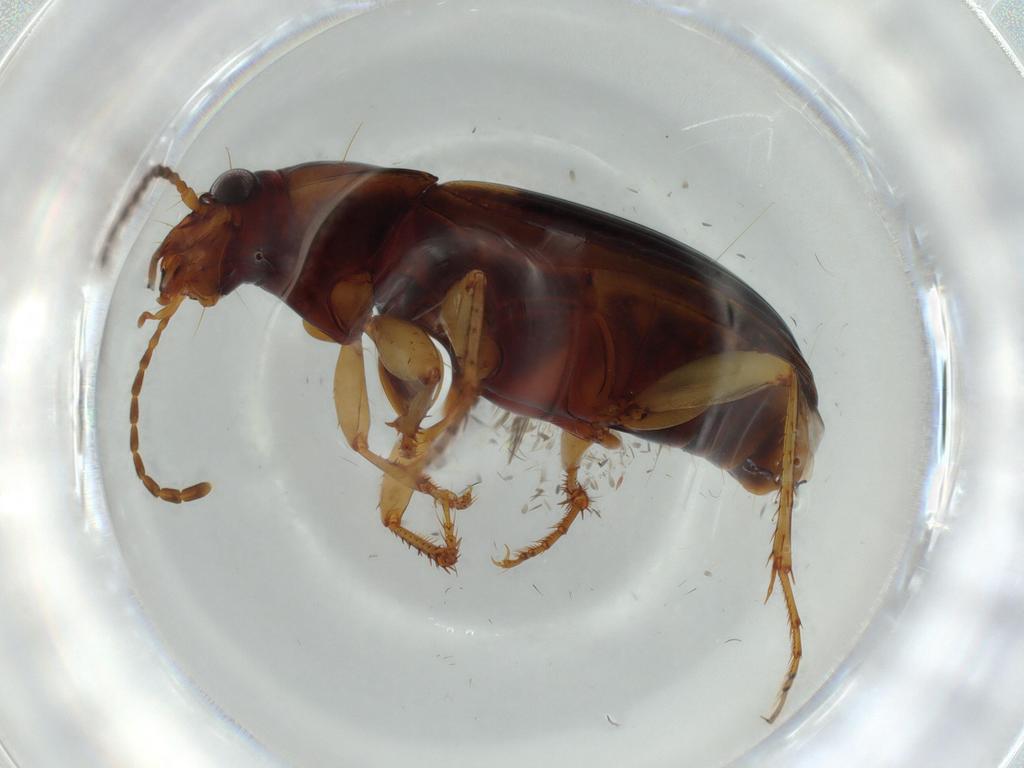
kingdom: Animalia
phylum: Arthropoda
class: Insecta
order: Coleoptera
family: Carabidae
